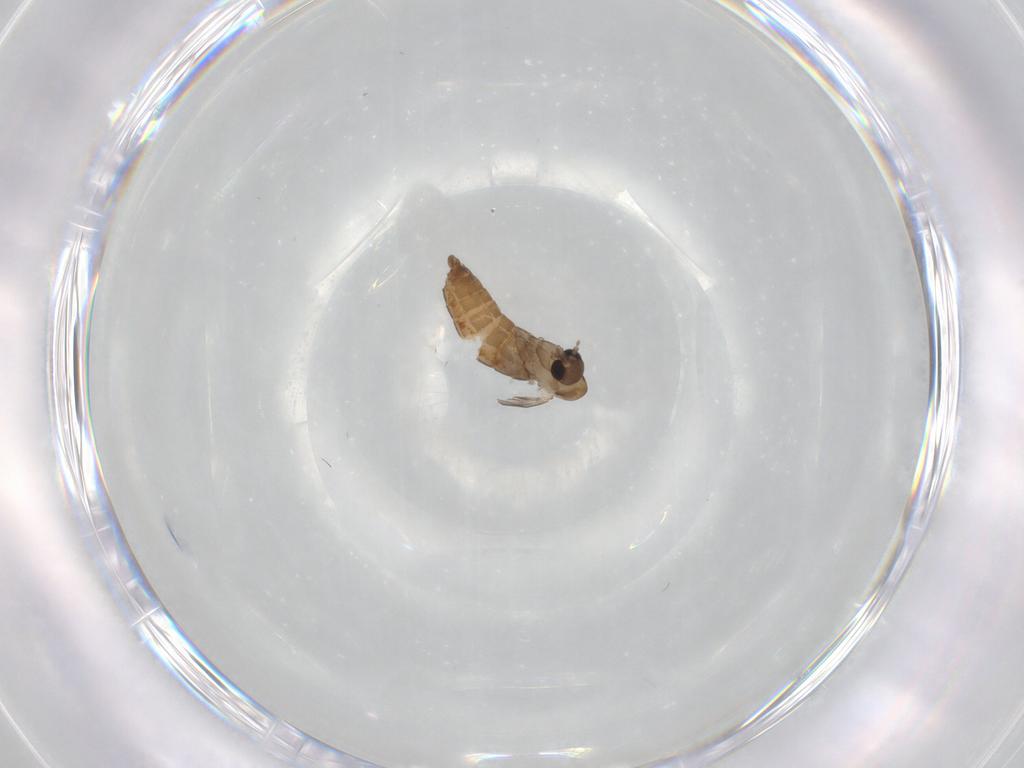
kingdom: Animalia
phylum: Arthropoda
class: Insecta
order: Diptera
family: Psychodidae
